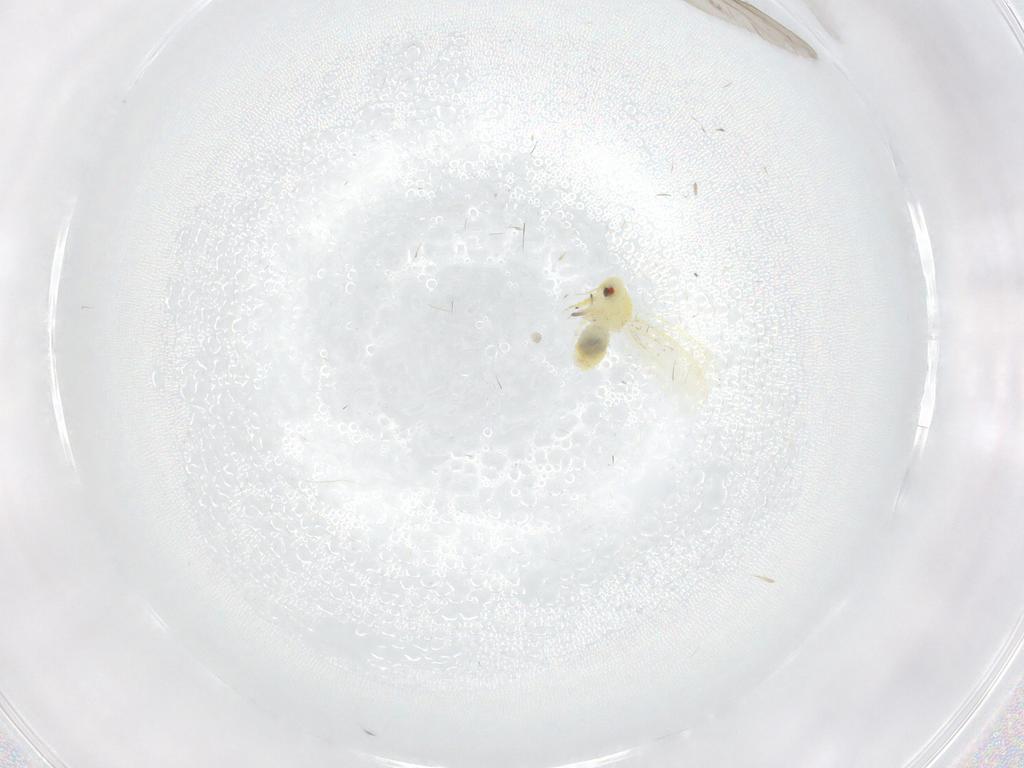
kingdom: Animalia
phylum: Arthropoda
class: Insecta
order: Hemiptera
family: Aleyrodidae
